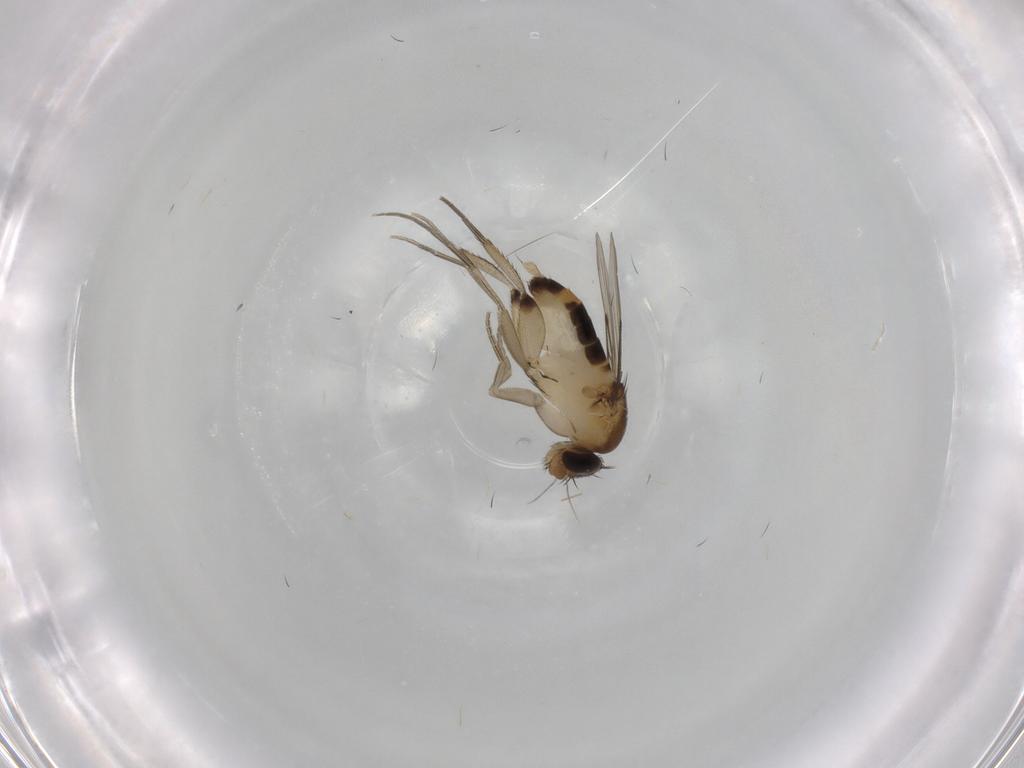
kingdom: Animalia
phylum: Arthropoda
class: Insecta
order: Diptera
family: Phoridae
